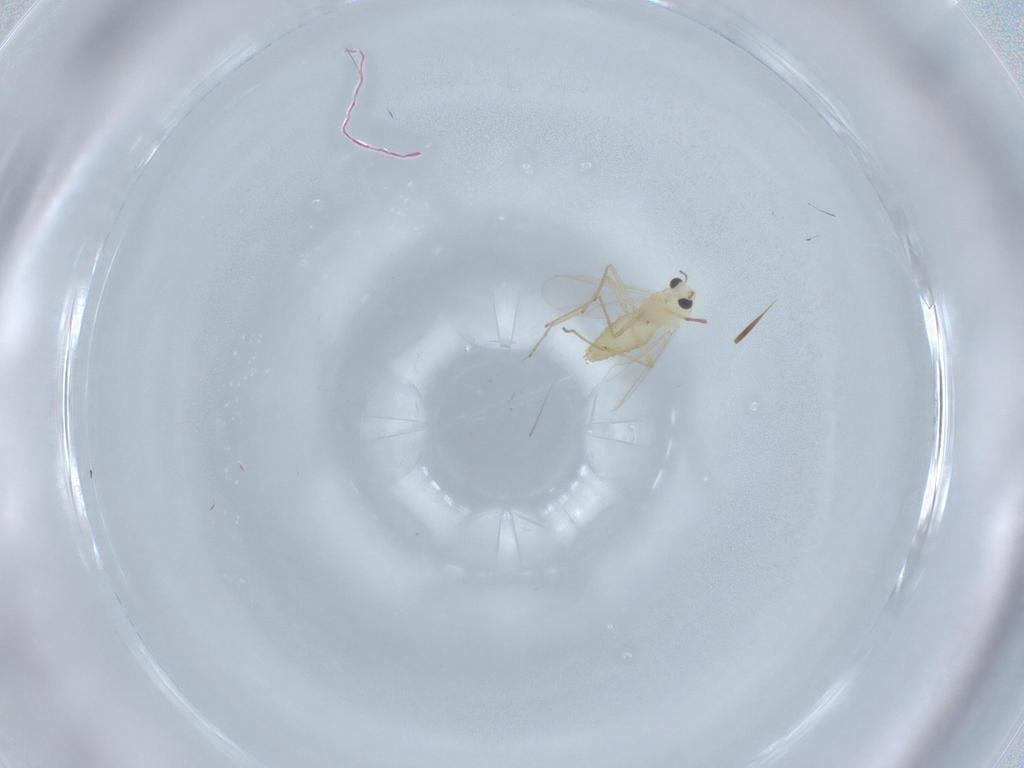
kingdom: Animalia
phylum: Arthropoda
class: Insecta
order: Diptera
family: Chironomidae
